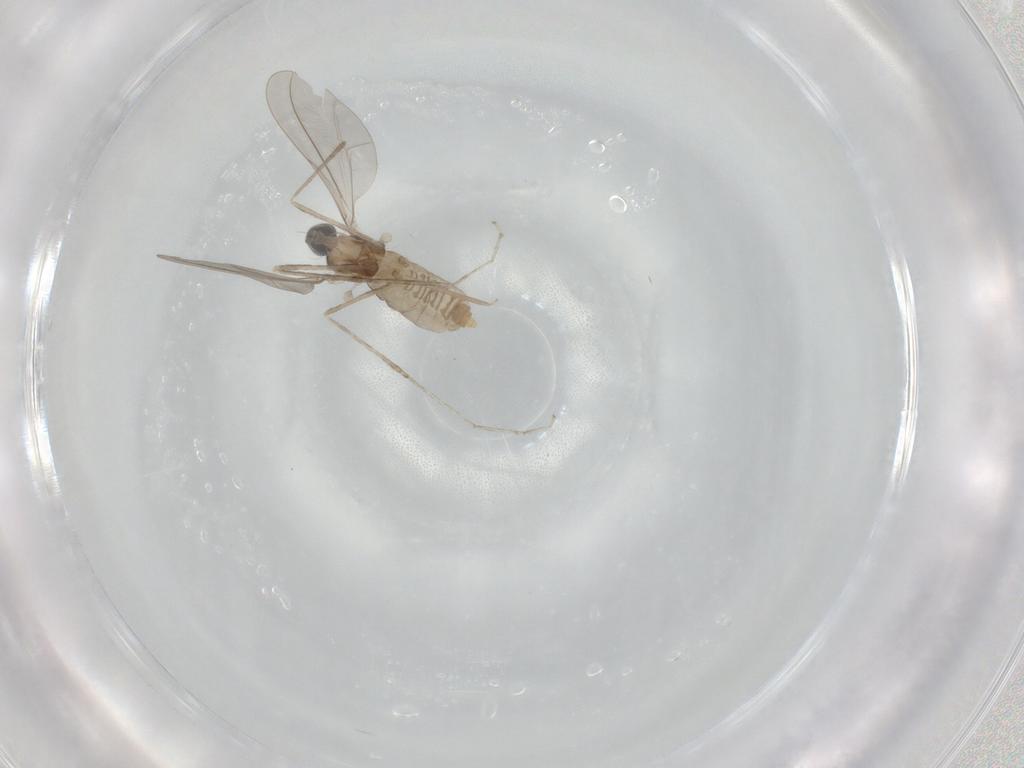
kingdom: Animalia
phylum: Arthropoda
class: Insecta
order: Diptera
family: Cecidomyiidae
